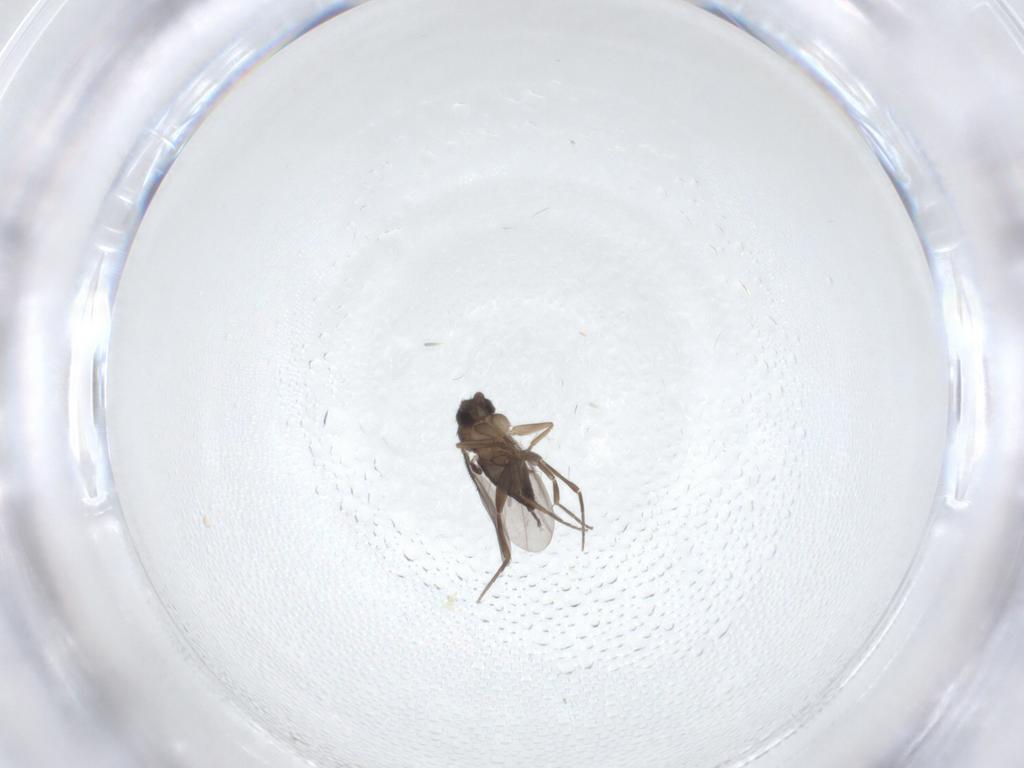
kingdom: Animalia
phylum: Arthropoda
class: Insecta
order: Diptera
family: Phoridae
